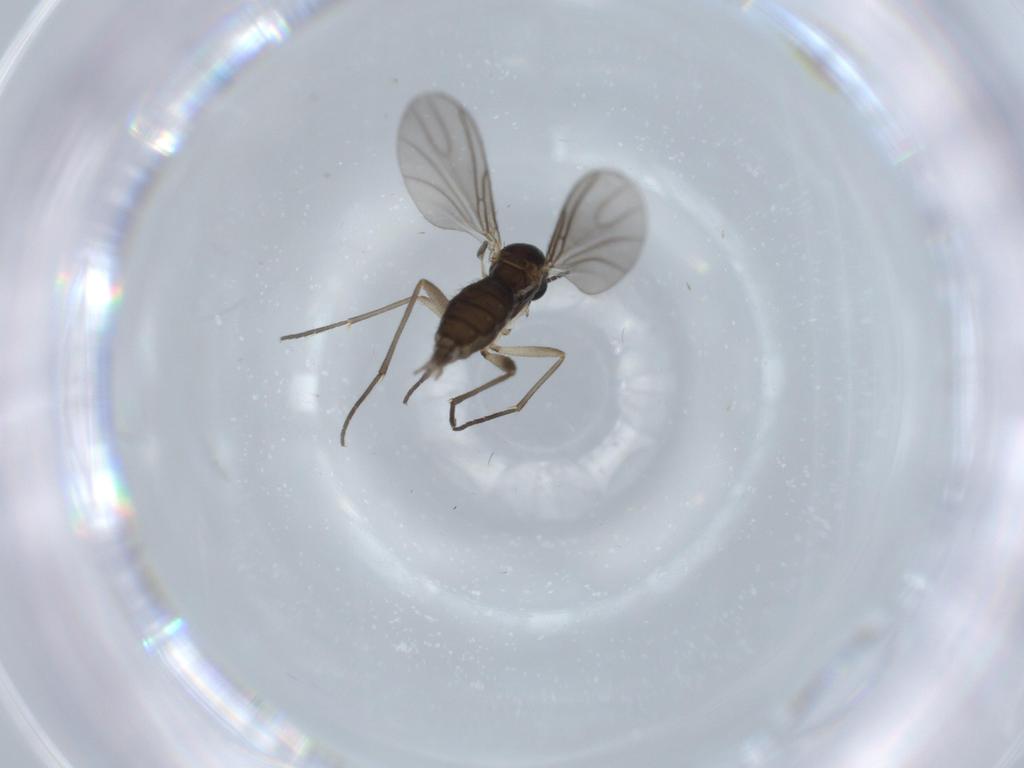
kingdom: Animalia
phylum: Arthropoda
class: Insecta
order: Diptera
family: Sciaridae
